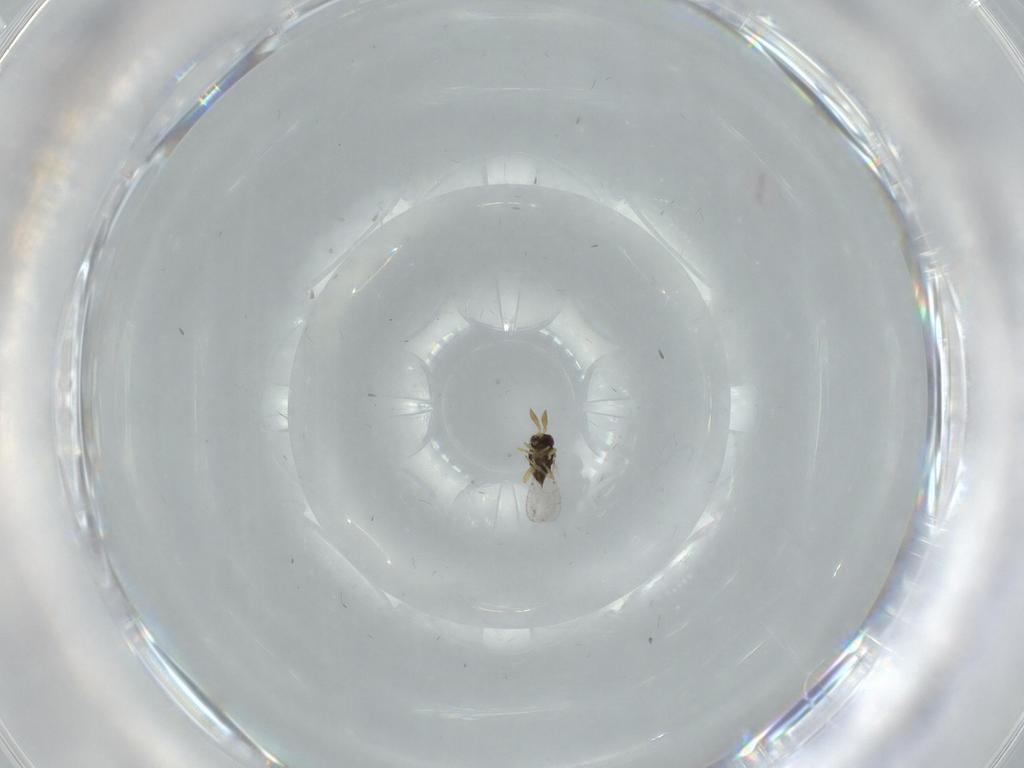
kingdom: Animalia
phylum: Arthropoda
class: Insecta
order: Hymenoptera
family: Encyrtidae
